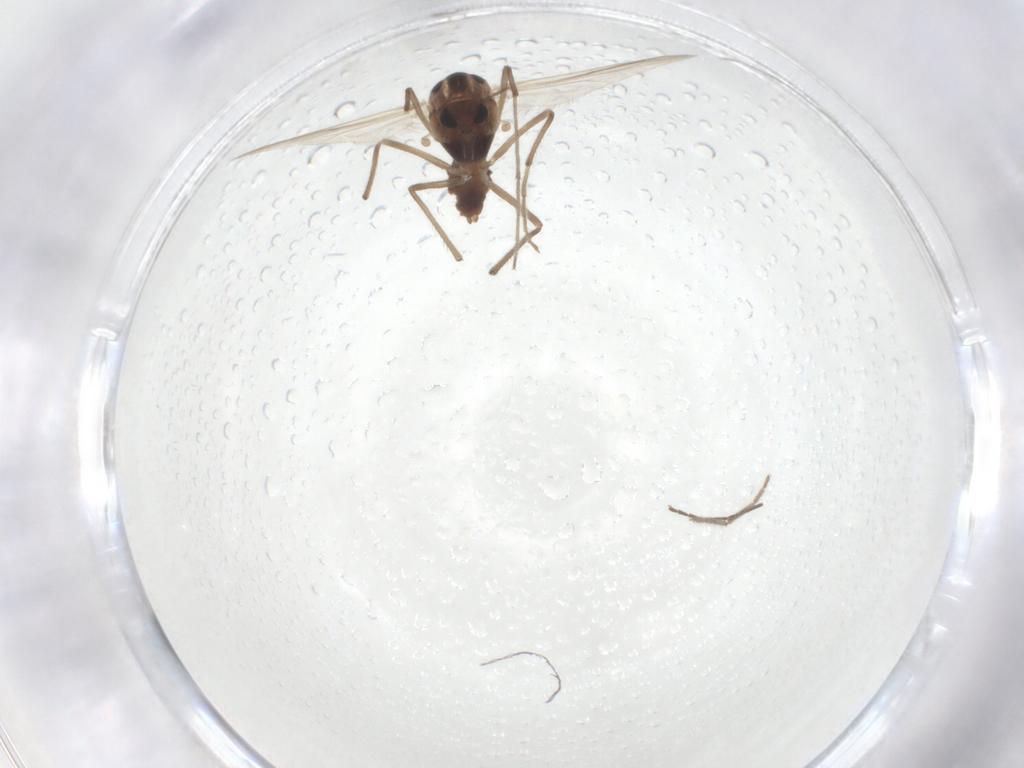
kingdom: Animalia
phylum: Arthropoda
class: Insecta
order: Diptera
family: Chironomidae
